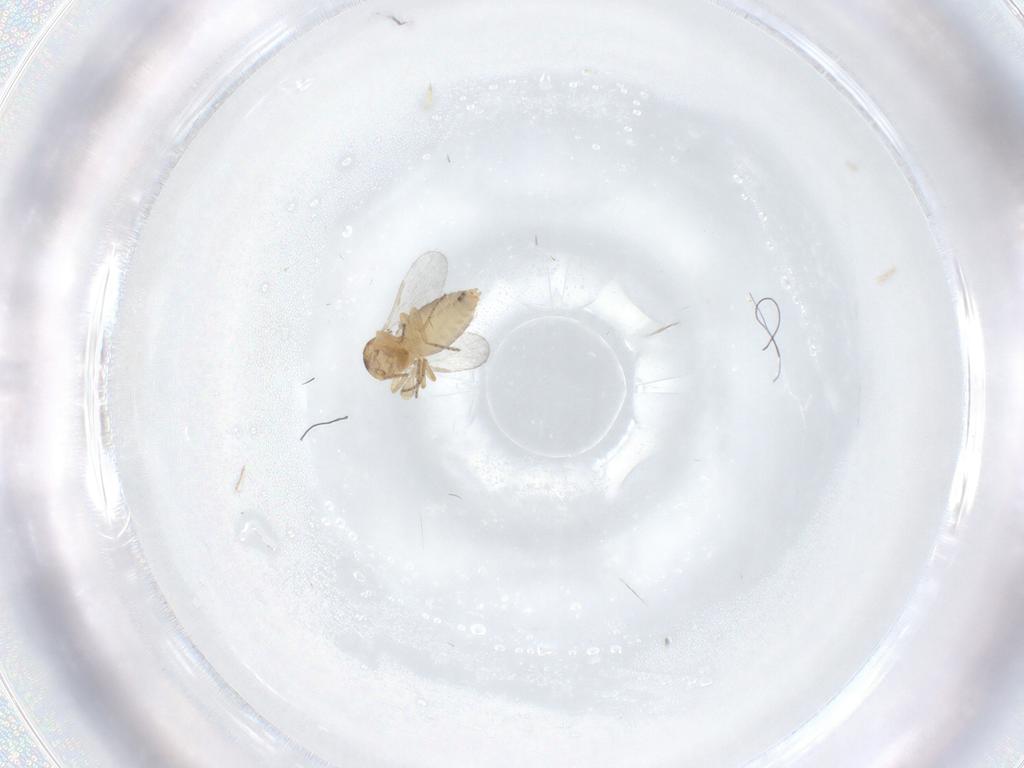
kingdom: Animalia
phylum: Arthropoda
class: Insecta
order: Diptera
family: Ceratopogonidae
